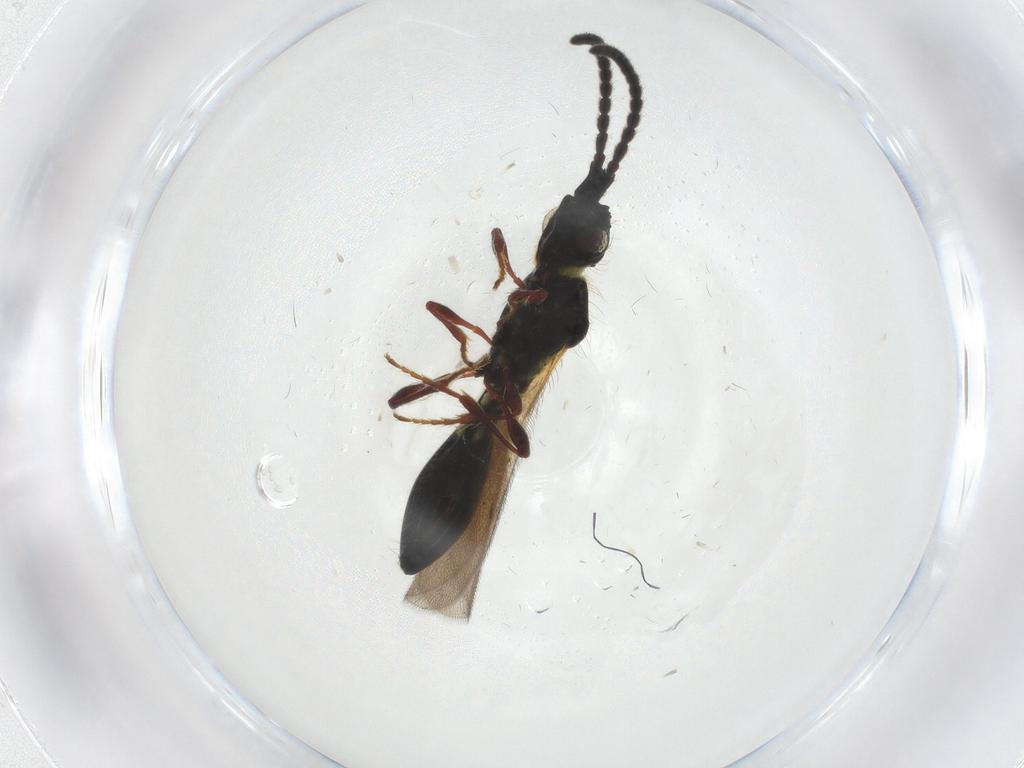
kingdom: Animalia
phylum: Arthropoda
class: Insecta
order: Hymenoptera
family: Diapriidae
